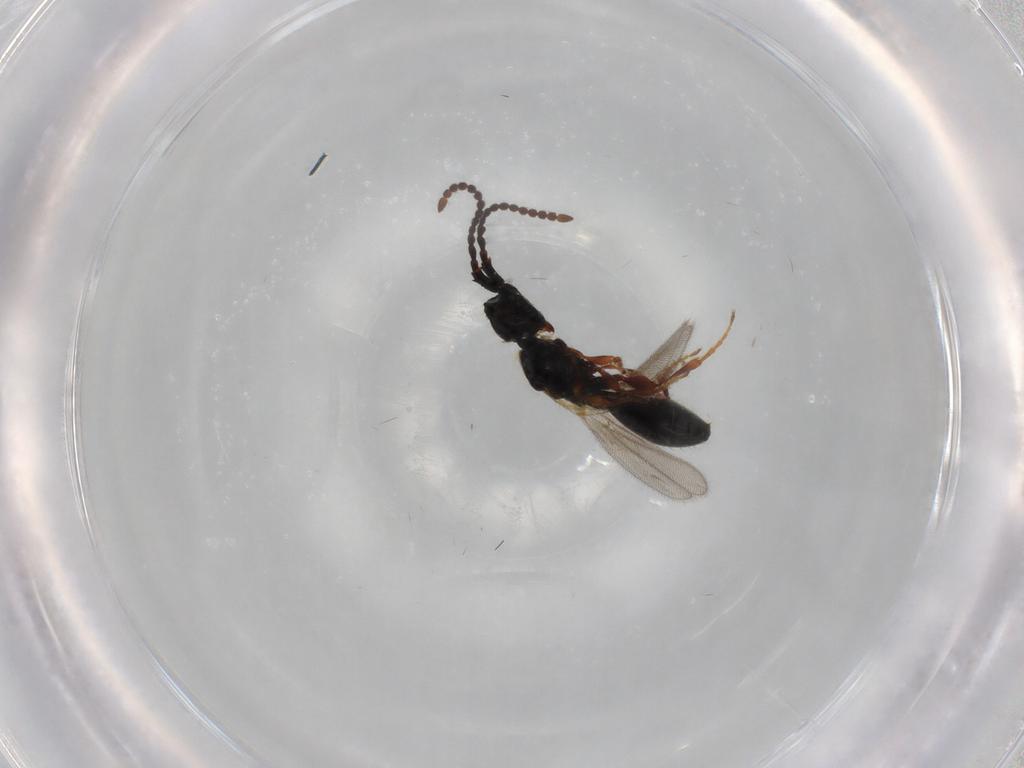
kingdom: Animalia
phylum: Arthropoda
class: Insecta
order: Hymenoptera
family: Diapriidae
